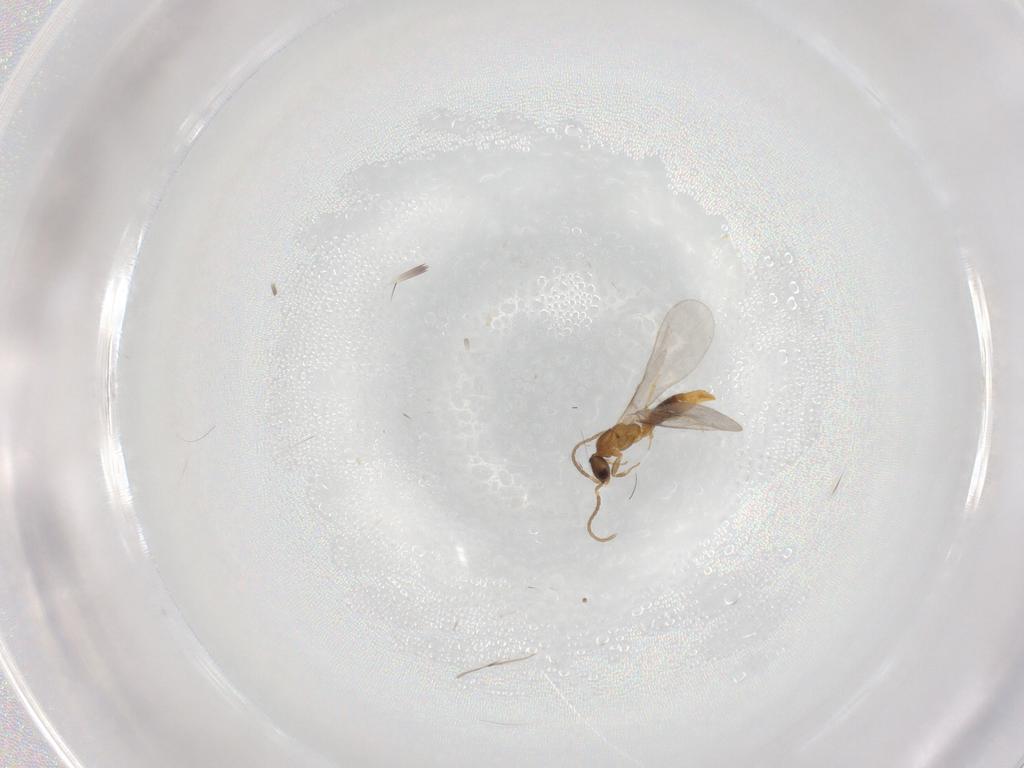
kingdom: Animalia
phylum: Arthropoda
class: Insecta
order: Hymenoptera
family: Formicidae
